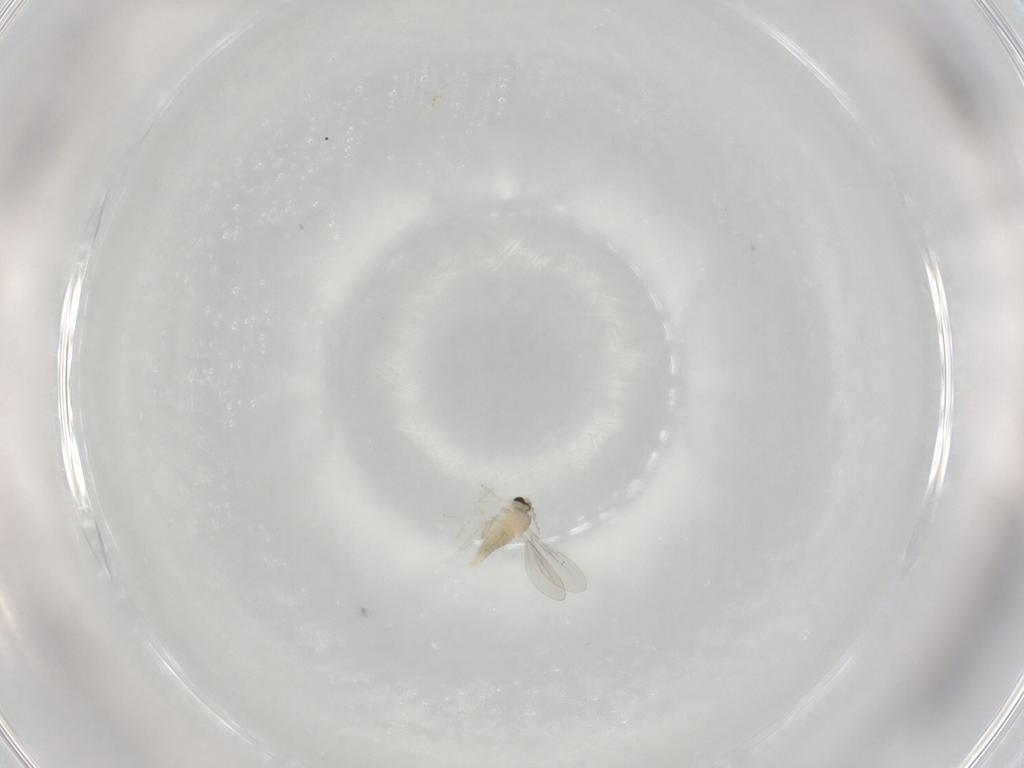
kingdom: Animalia
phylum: Arthropoda
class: Insecta
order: Diptera
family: Cecidomyiidae
